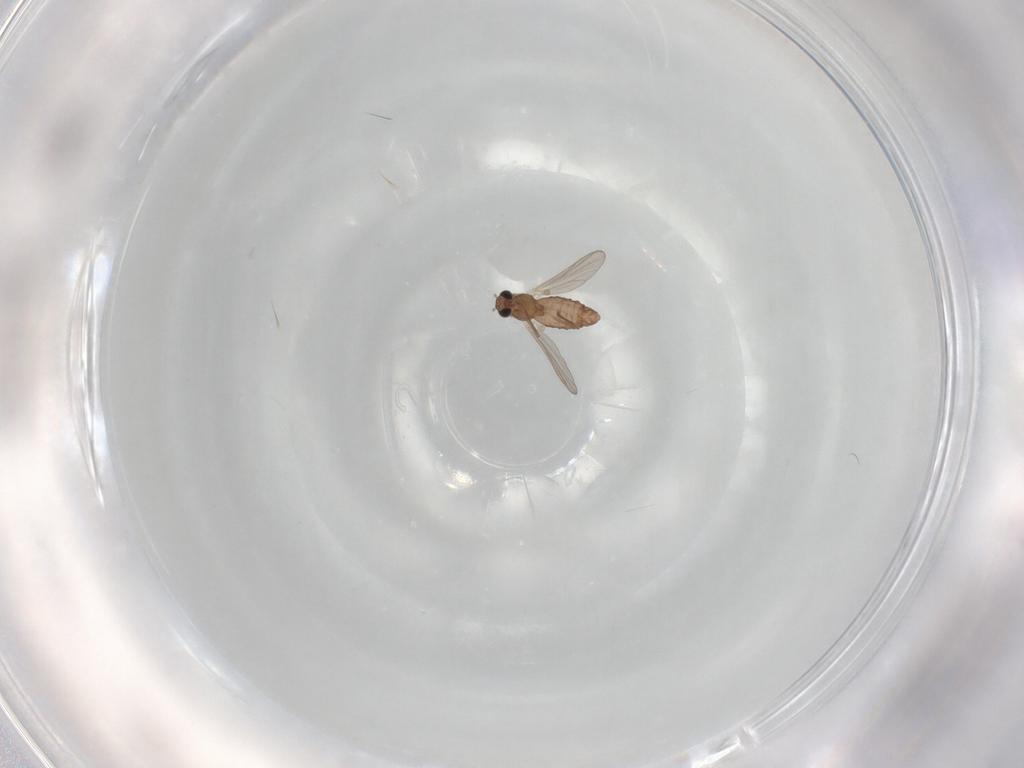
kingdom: Animalia
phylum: Arthropoda
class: Insecta
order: Diptera
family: Chironomidae
